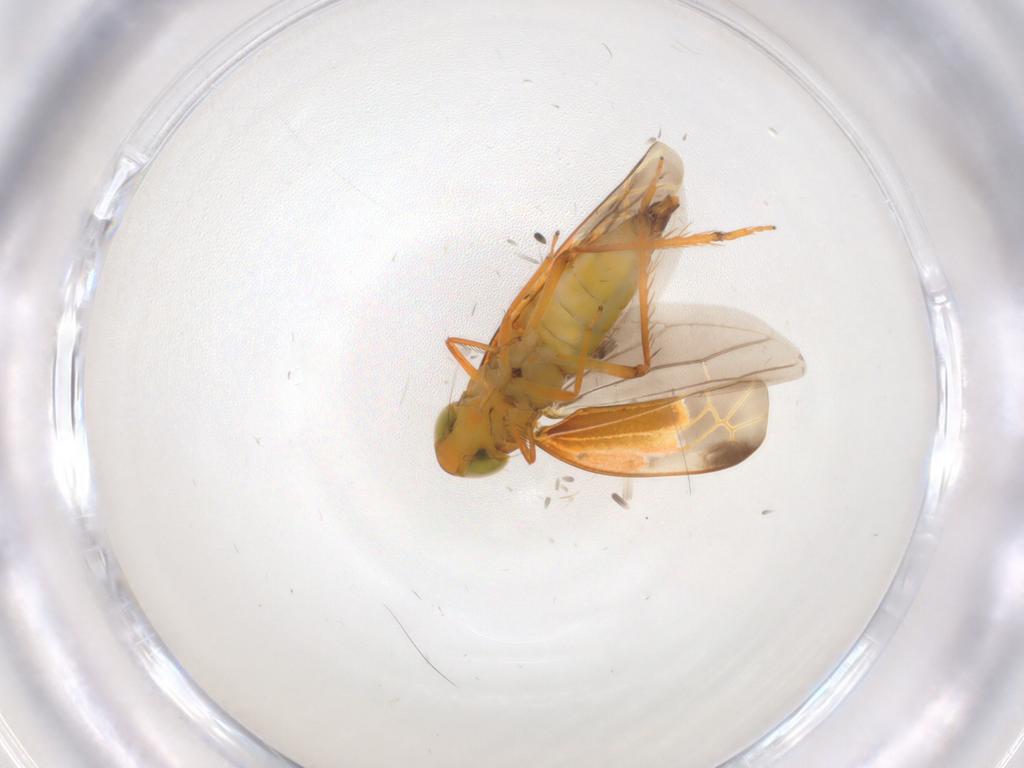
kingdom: Animalia
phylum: Arthropoda
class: Insecta
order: Hemiptera
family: Cicadellidae
